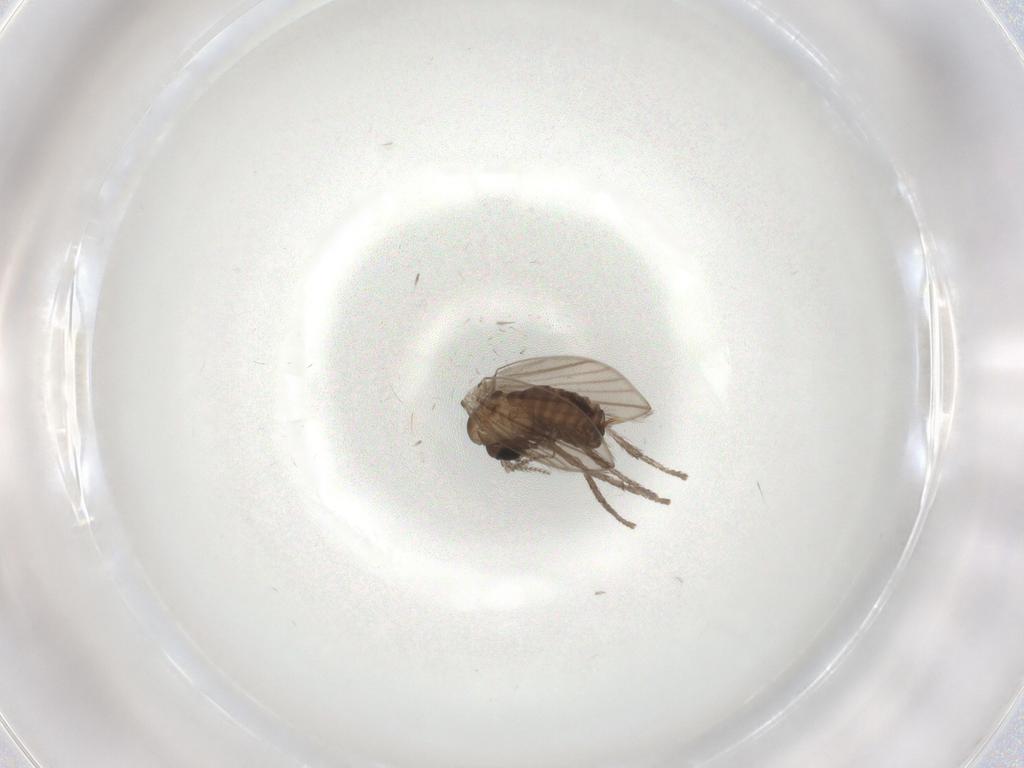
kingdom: Animalia
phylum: Arthropoda
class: Insecta
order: Diptera
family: Psychodidae
